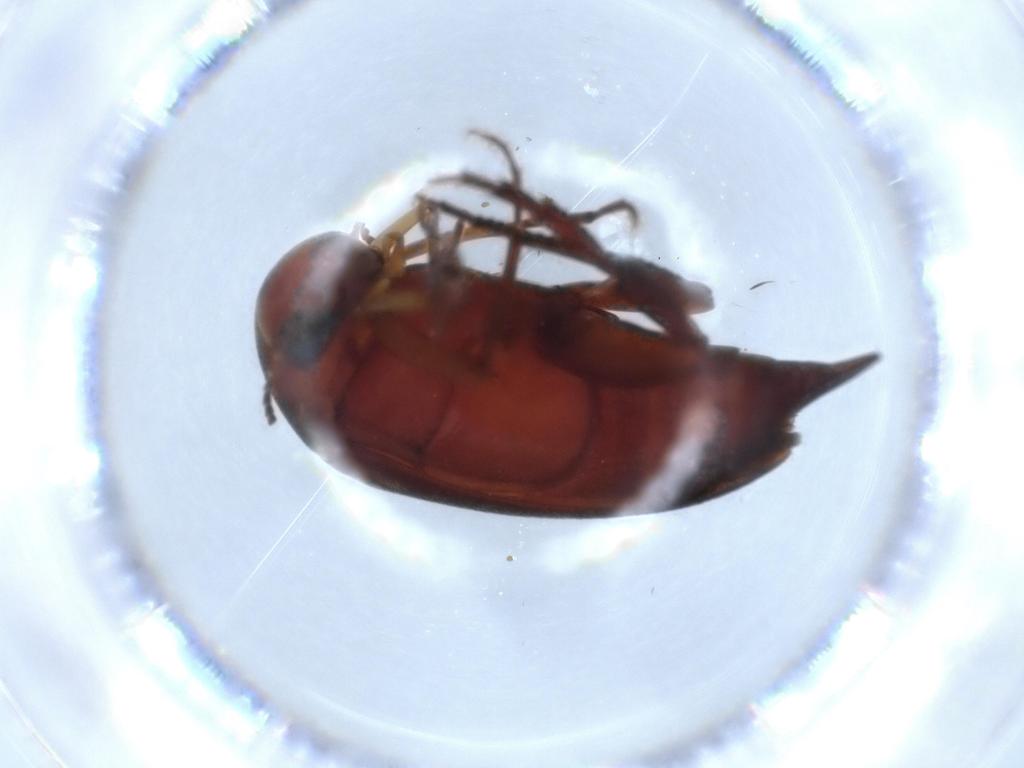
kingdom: Animalia
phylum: Arthropoda
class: Insecta
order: Coleoptera
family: Mordellidae
